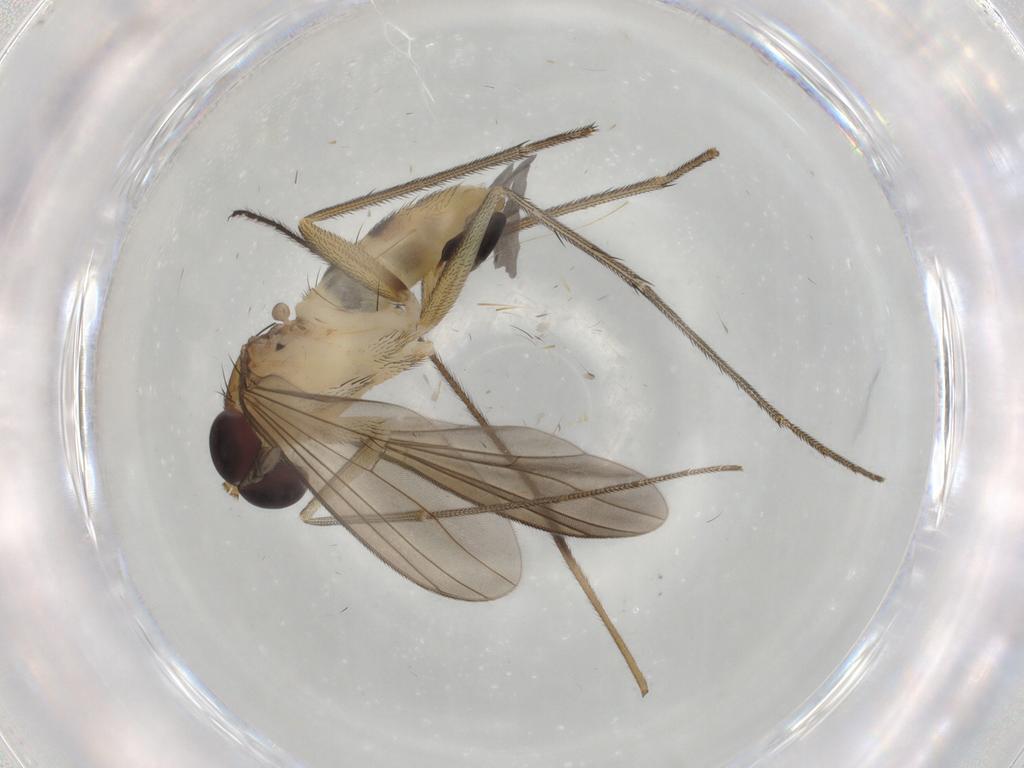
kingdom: Animalia
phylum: Arthropoda
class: Insecta
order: Diptera
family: Dolichopodidae
